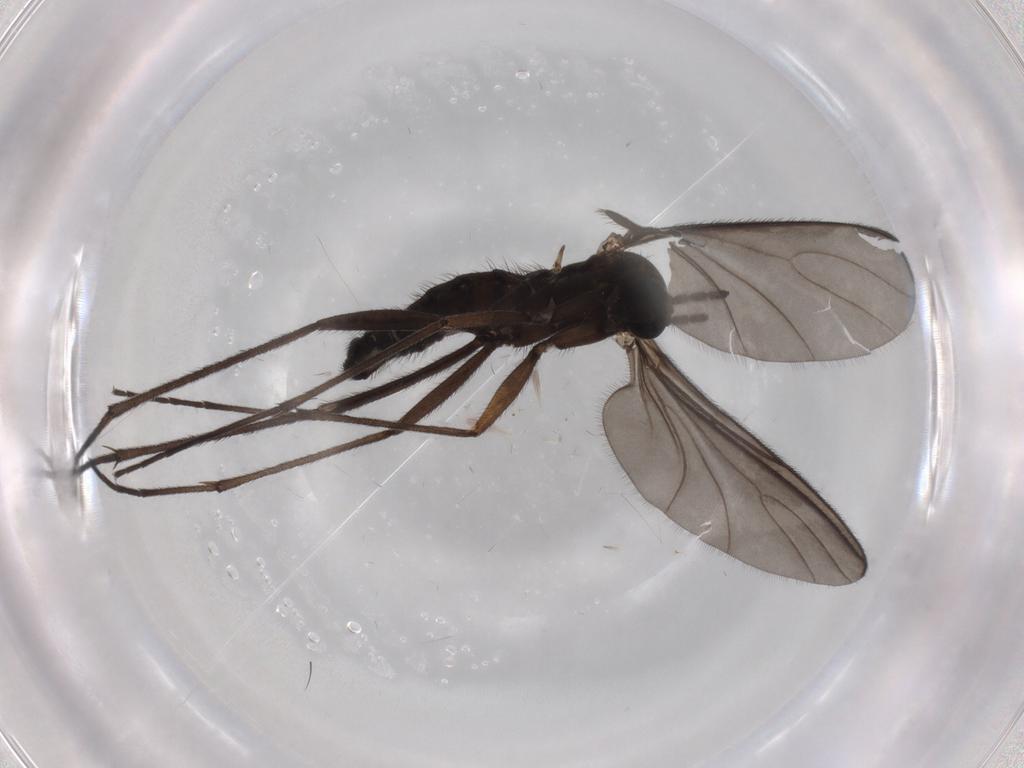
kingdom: Animalia
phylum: Arthropoda
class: Insecta
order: Diptera
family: Sciaridae
